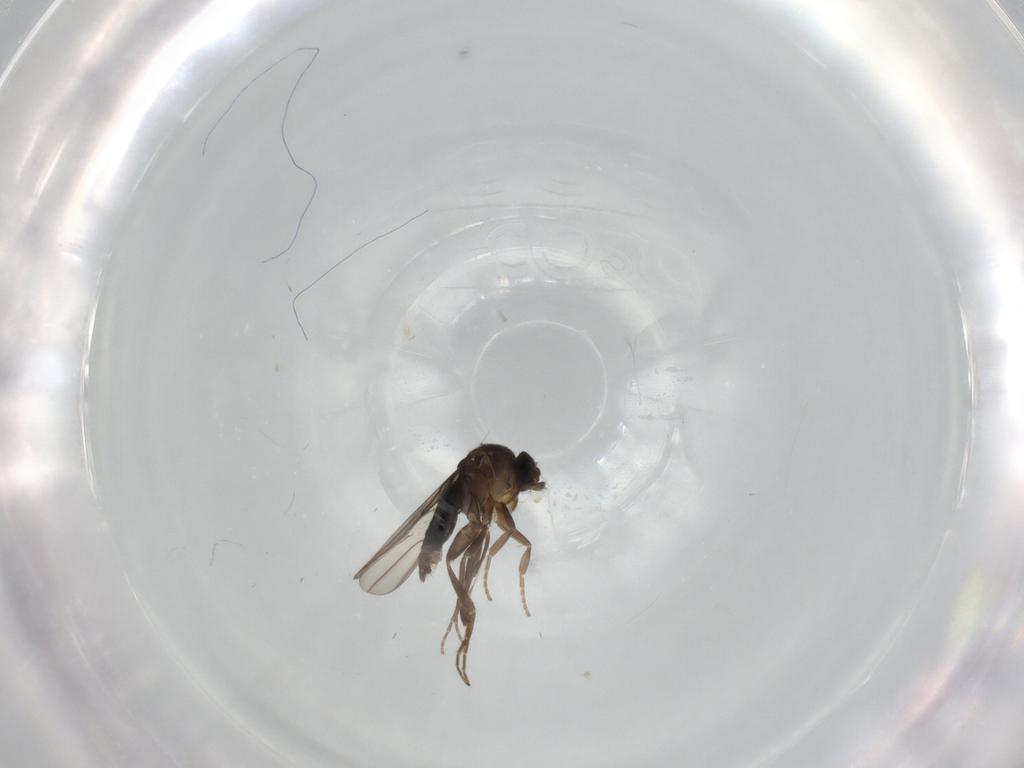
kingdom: Animalia
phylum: Arthropoda
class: Insecta
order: Diptera
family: Phoridae
